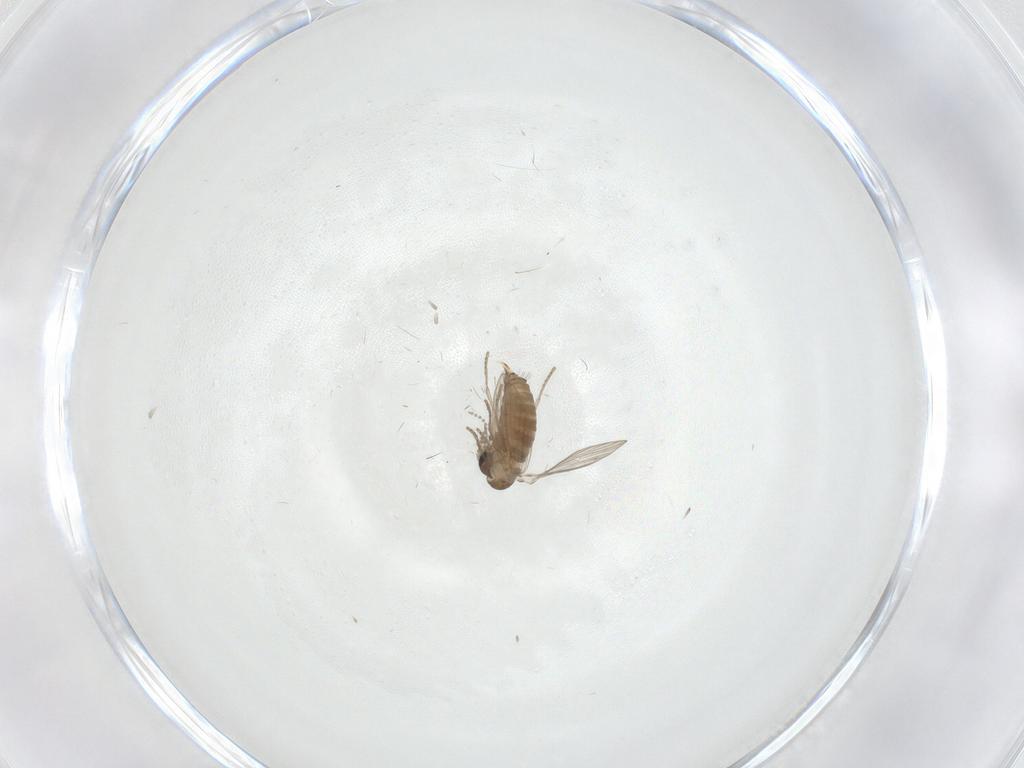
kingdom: Animalia
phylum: Arthropoda
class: Insecta
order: Diptera
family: Psychodidae
